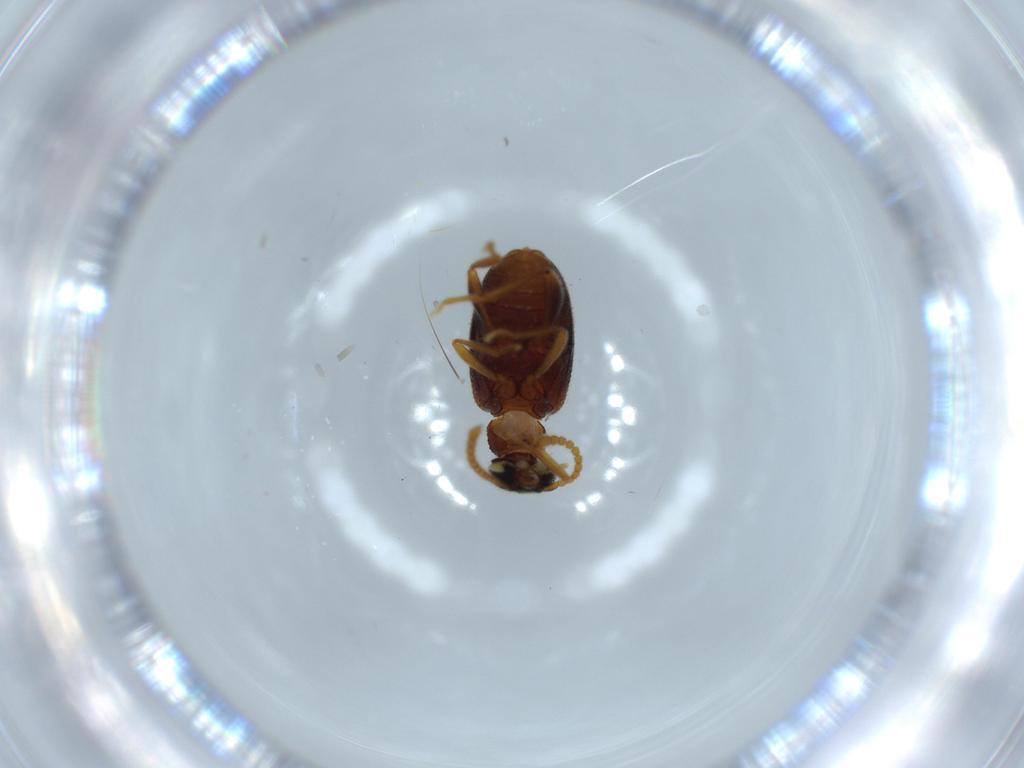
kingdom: Animalia
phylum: Arthropoda
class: Insecta
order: Coleoptera
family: Aderidae
